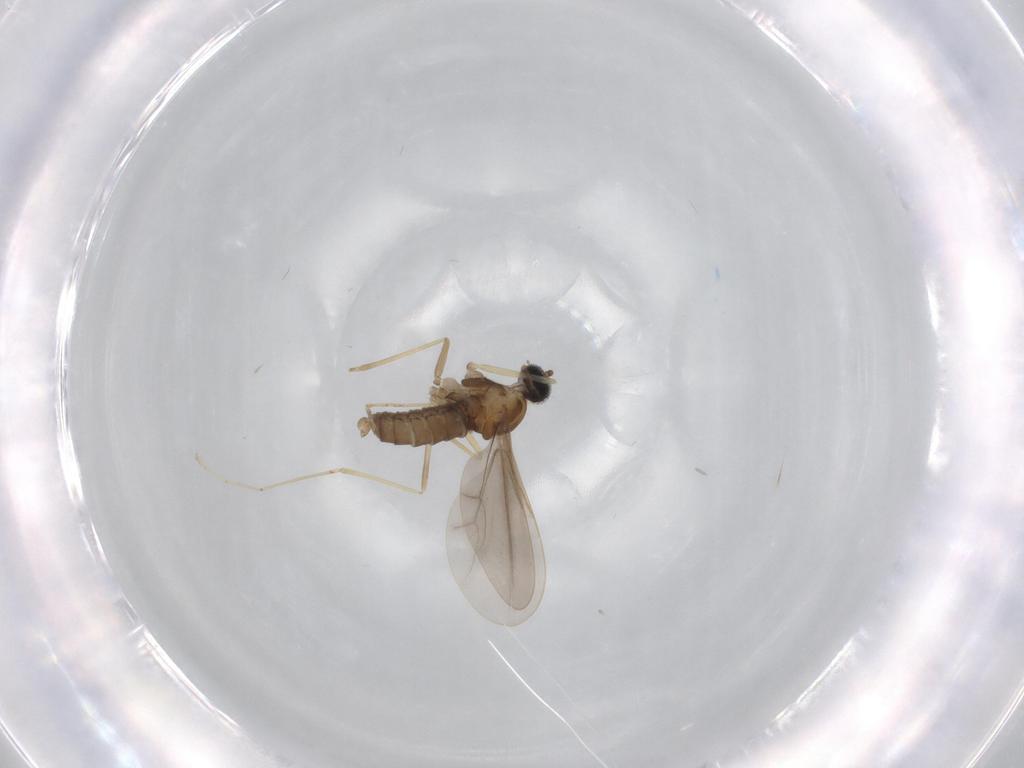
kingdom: Animalia
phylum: Arthropoda
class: Insecta
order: Diptera
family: Cecidomyiidae
